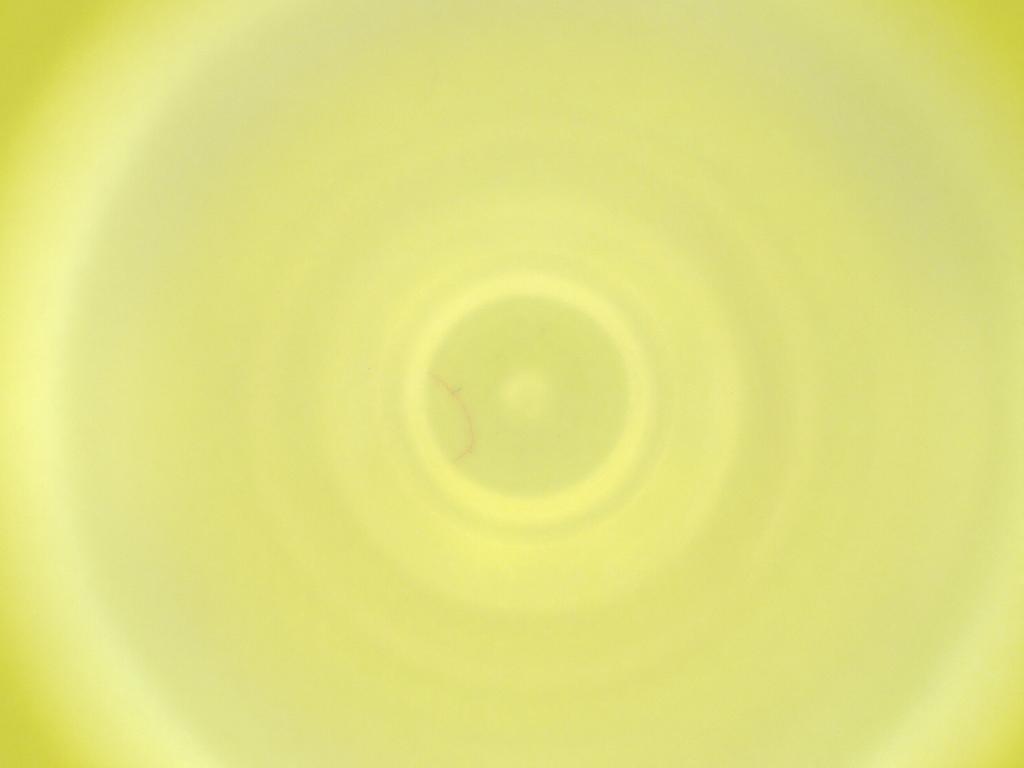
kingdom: Animalia
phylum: Arthropoda
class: Insecta
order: Diptera
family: Cecidomyiidae
